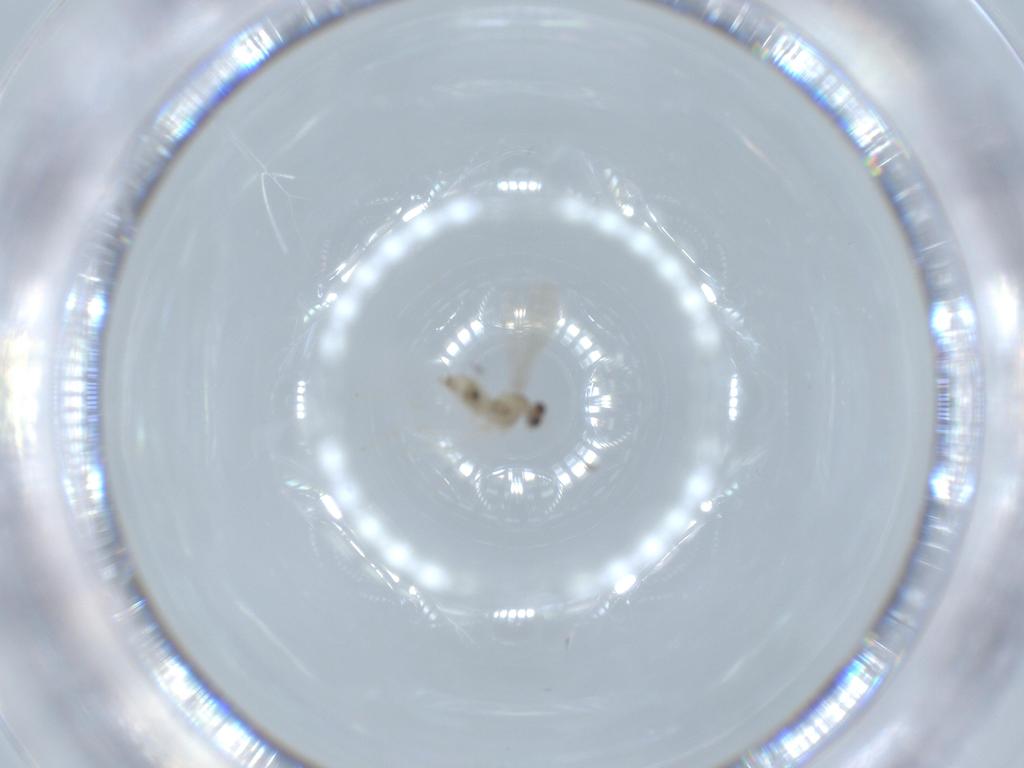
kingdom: Animalia
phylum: Arthropoda
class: Insecta
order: Diptera
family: Cecidomyiidae
